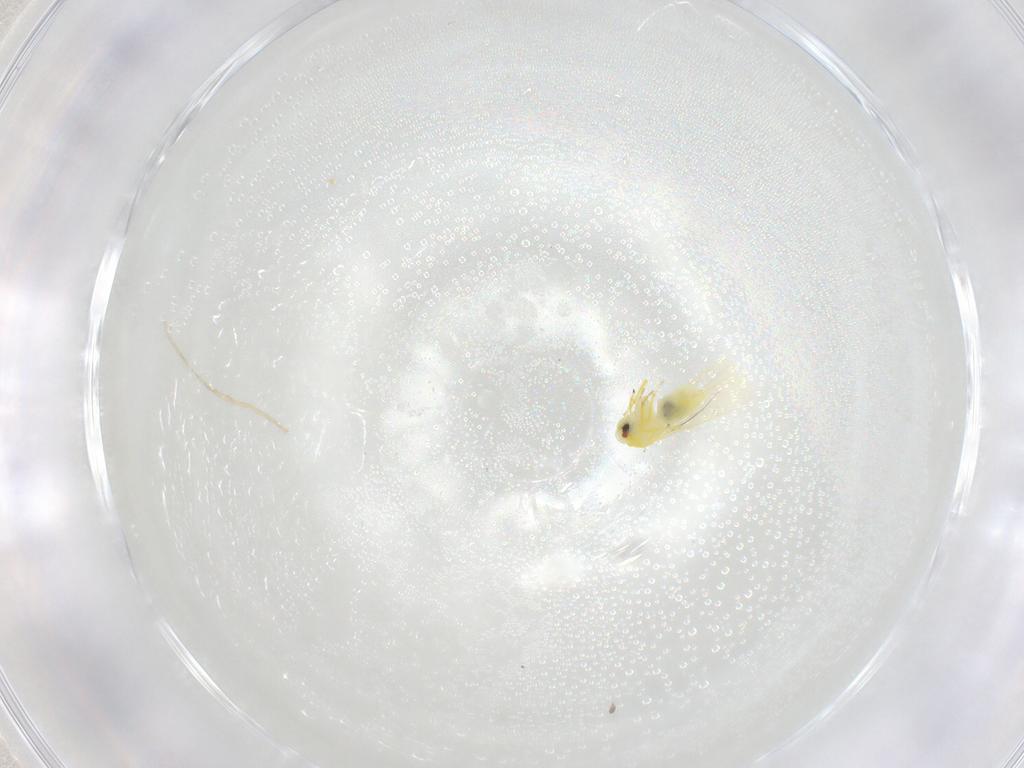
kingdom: Animalia
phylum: Arthropoda
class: Insecta
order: Hemiptera
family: Aleyrodidae
